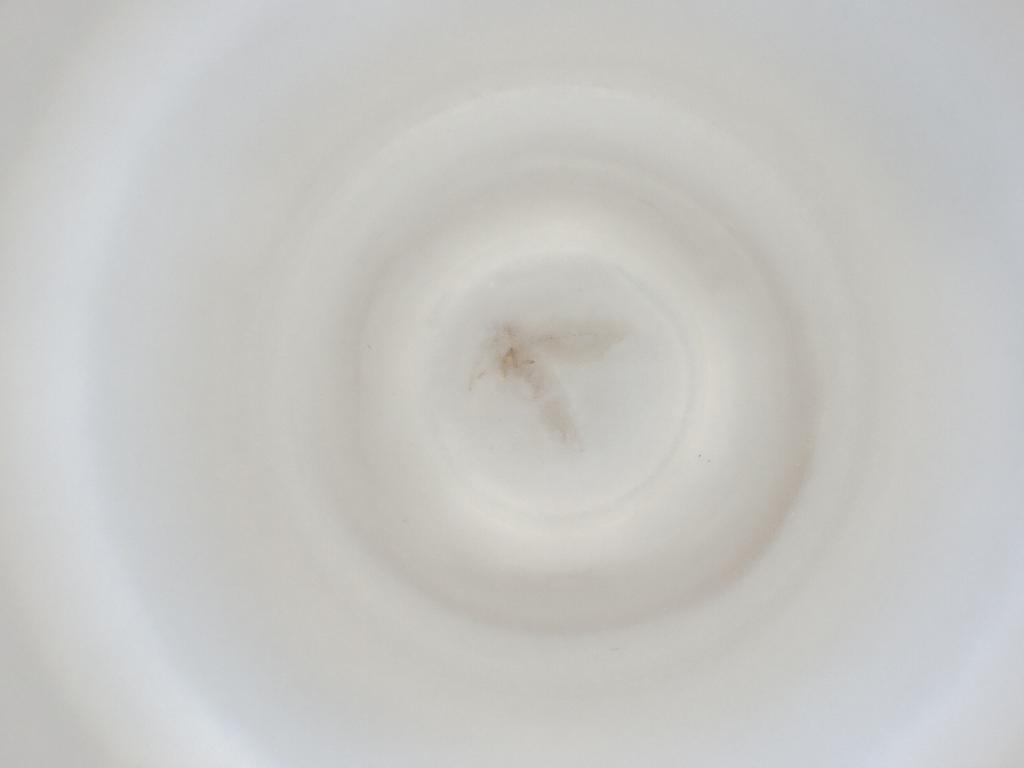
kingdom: Animalia
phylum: Arthropoda
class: Insecta
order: Diptera
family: Cecidomyiidae
